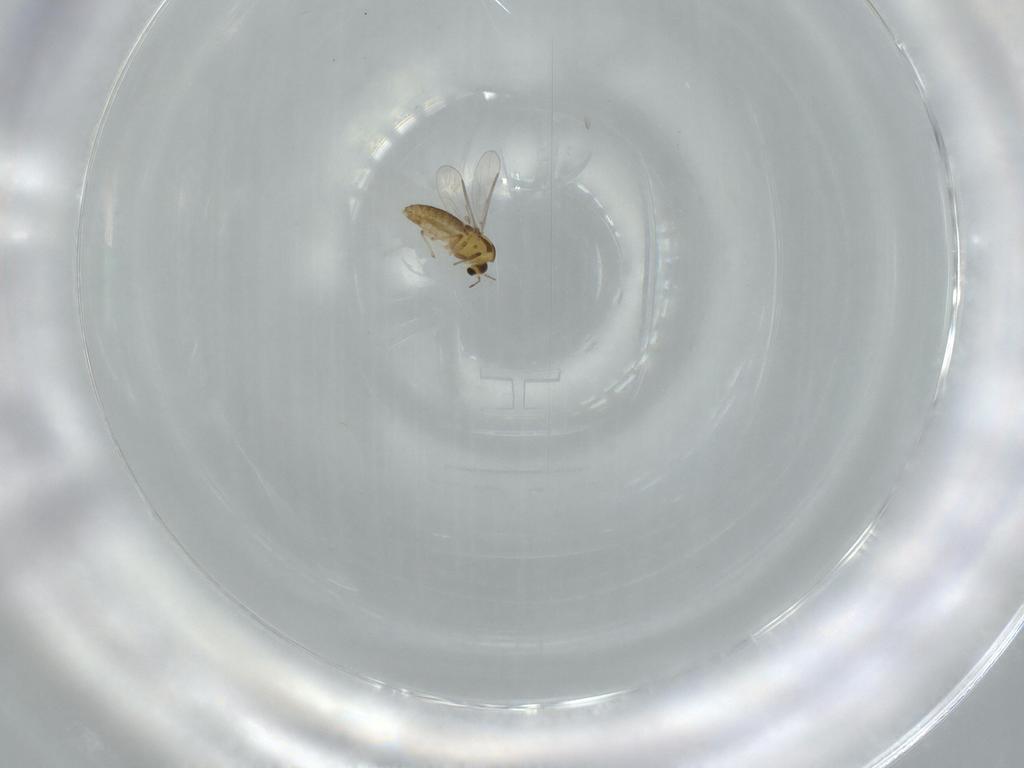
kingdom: Animalia
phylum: Arthropoda
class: Insecta
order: Diptera
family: Chironomidae
